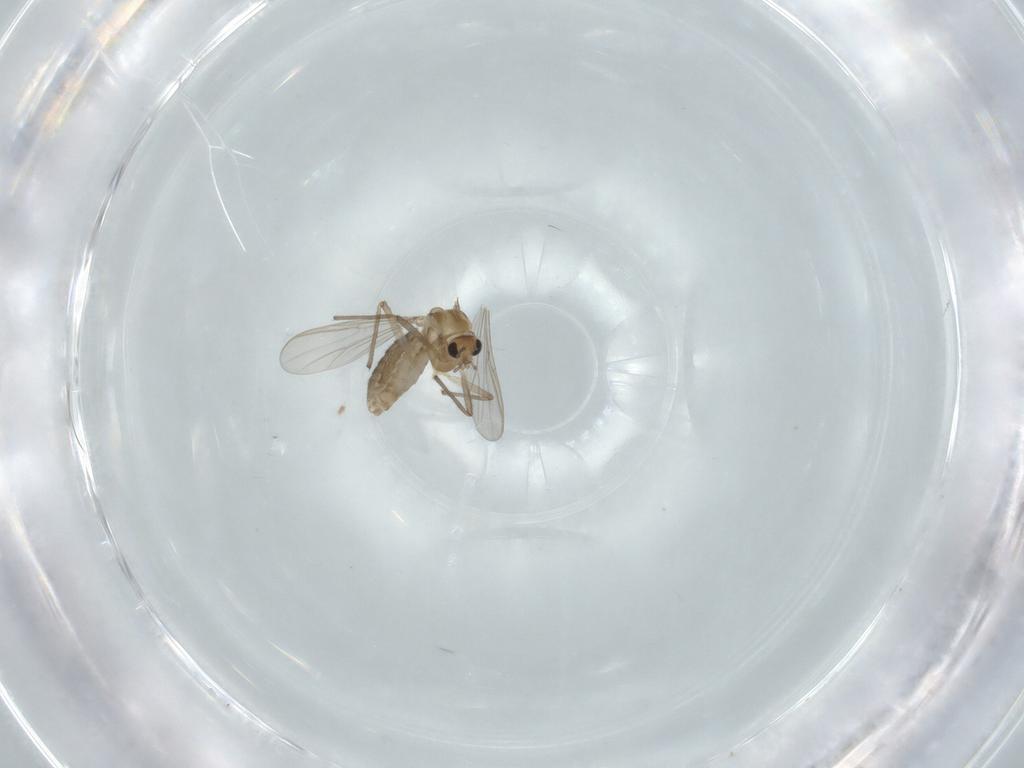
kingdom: Animalia
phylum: Arthropoda
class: Insecta
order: Diptera
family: Chironomidae
